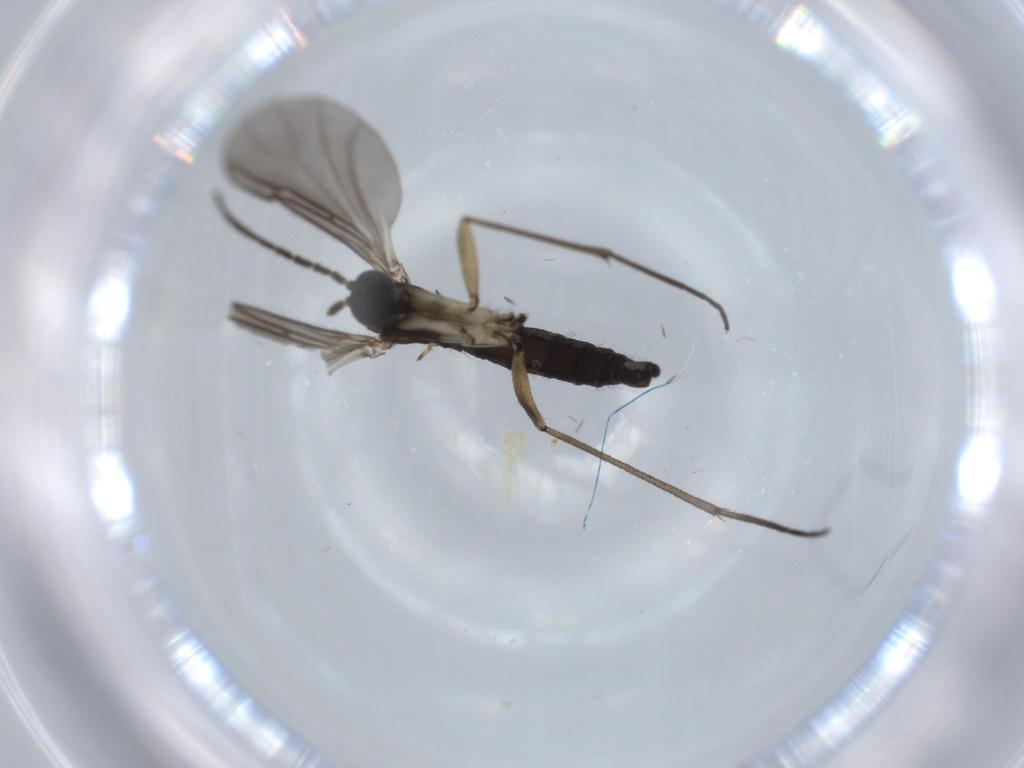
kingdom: Animalia
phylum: Arthropoda
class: Insecta
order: Diptera
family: Sciaridae
